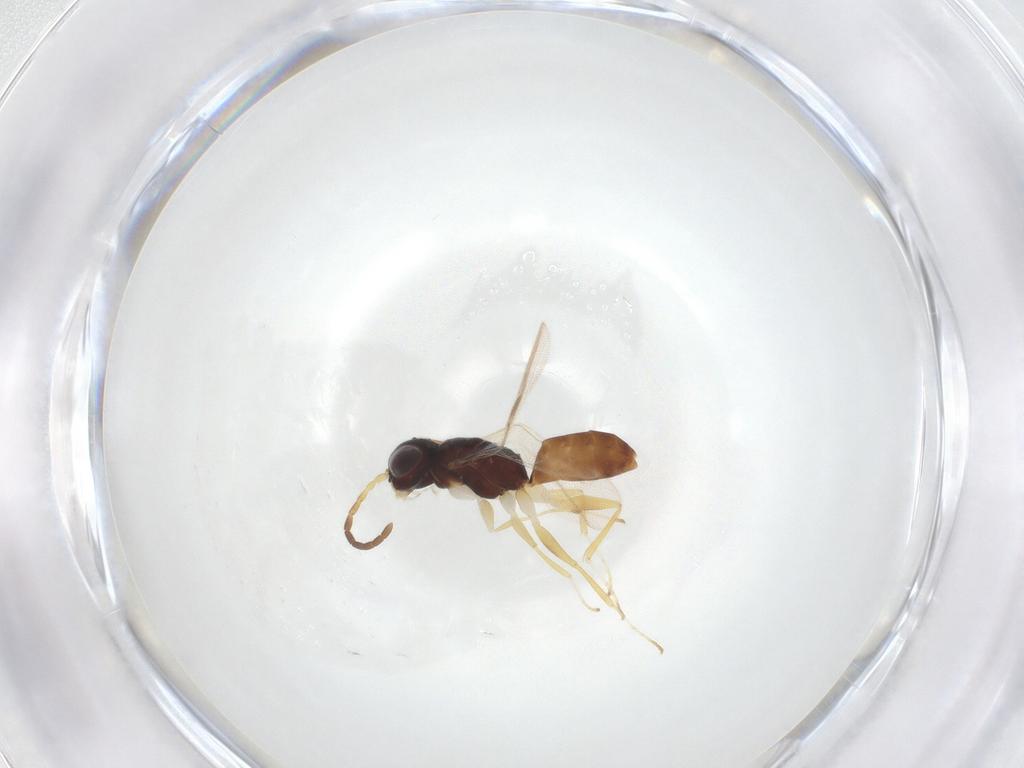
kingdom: Animalia
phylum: Arthropoda
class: Insecta
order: Hymenoptera
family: Dryinidae
